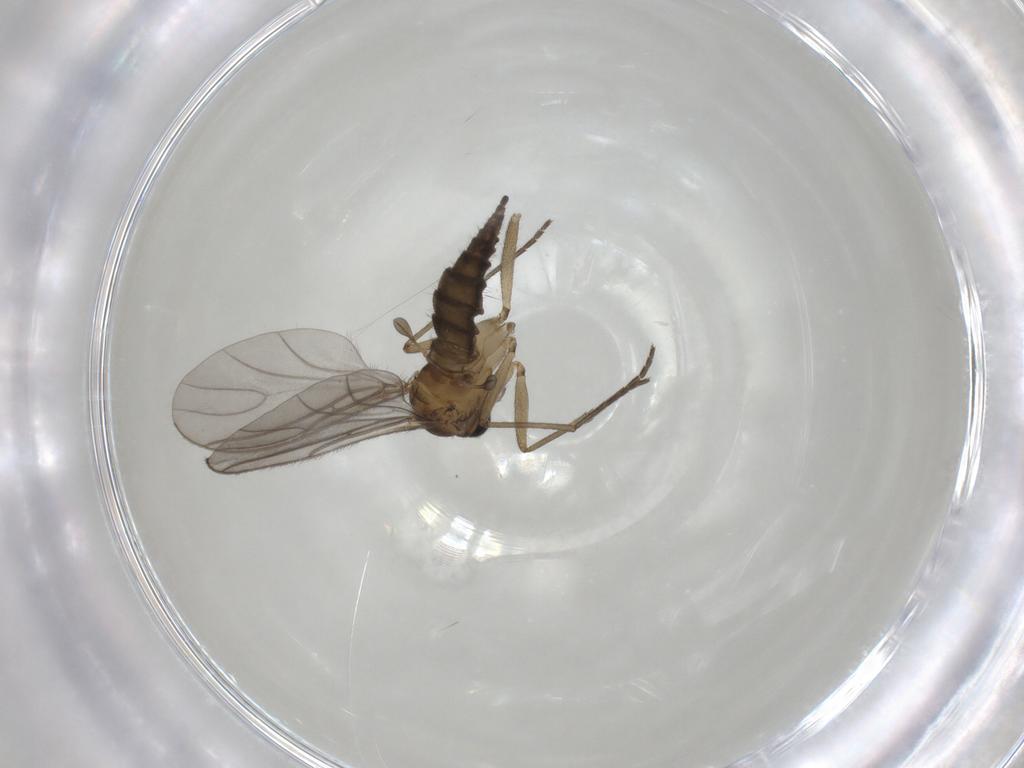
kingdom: Animalia
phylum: Arthropoda
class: Insecta
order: Diptera
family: Sciaridae
